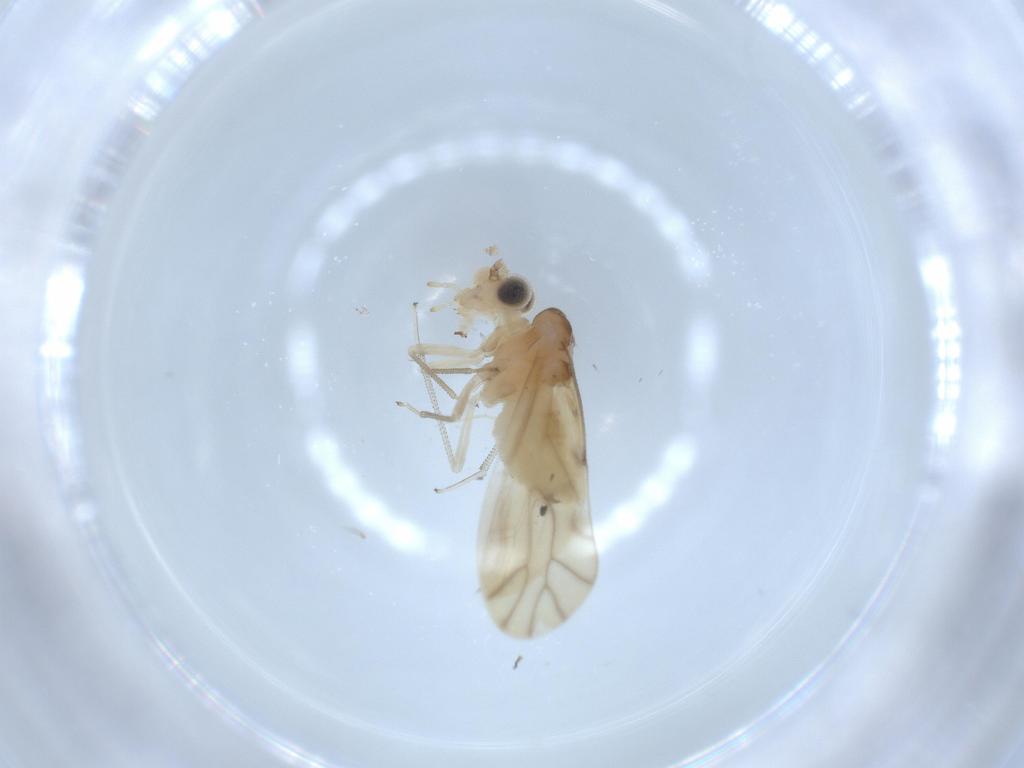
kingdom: Animalia
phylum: Arthropoda
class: Insecta
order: Psocodea
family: Caeciliusidae
